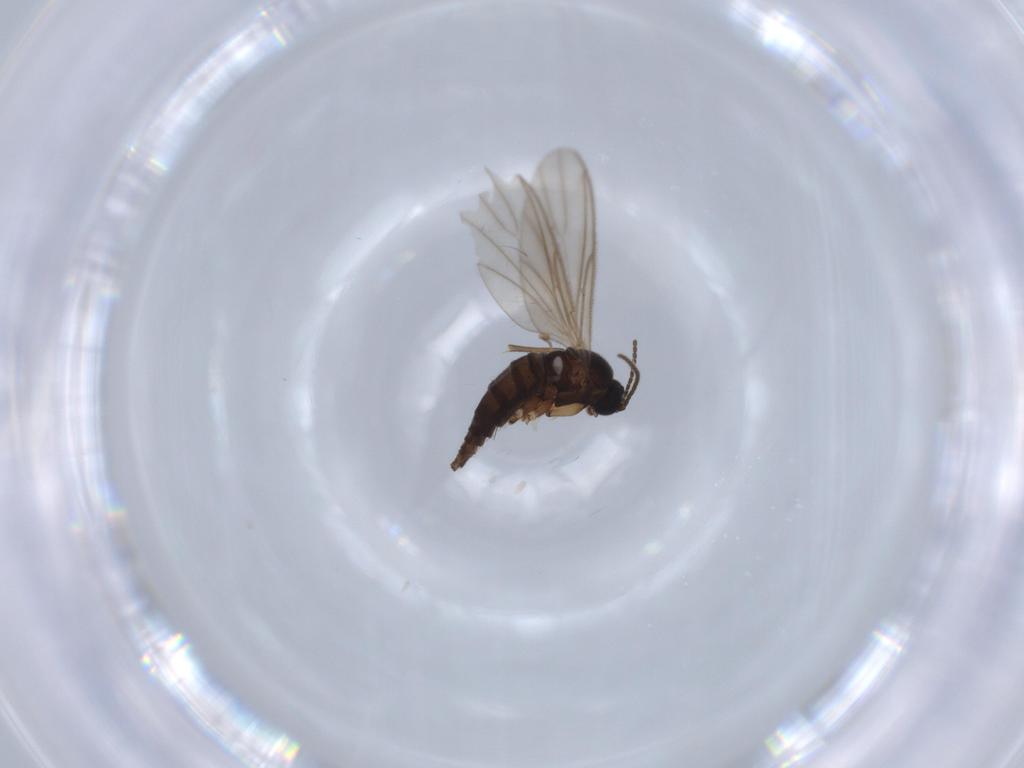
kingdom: Animalia
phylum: Arthropoda
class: Insecta
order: Diptera
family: Sciaridae
